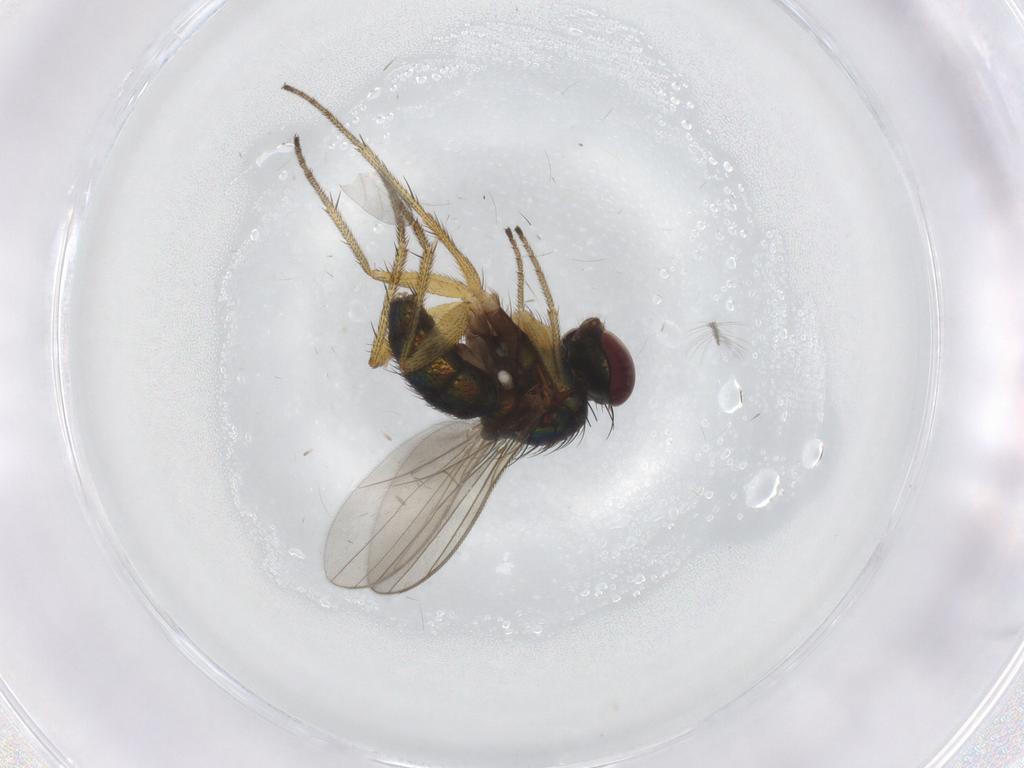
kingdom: Animalia
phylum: Arthropoda
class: Insecta
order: Diptera
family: Dolichopodidae
